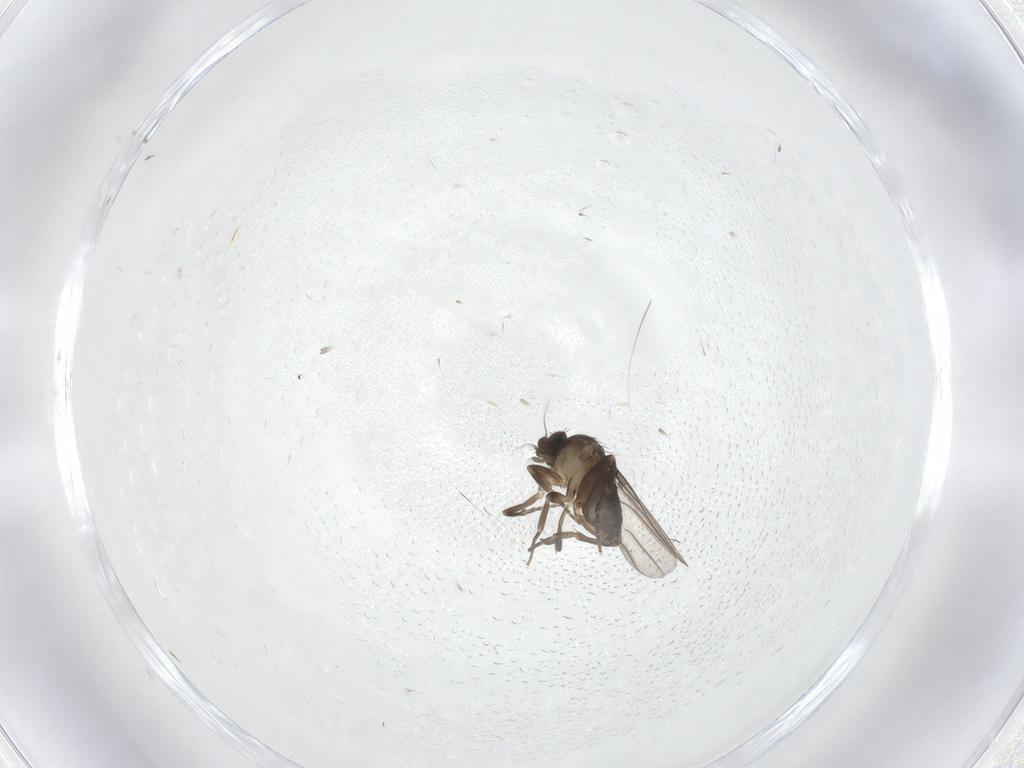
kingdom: Animalia
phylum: Arthropoda
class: Insecta
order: Diptera
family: Phoridae
